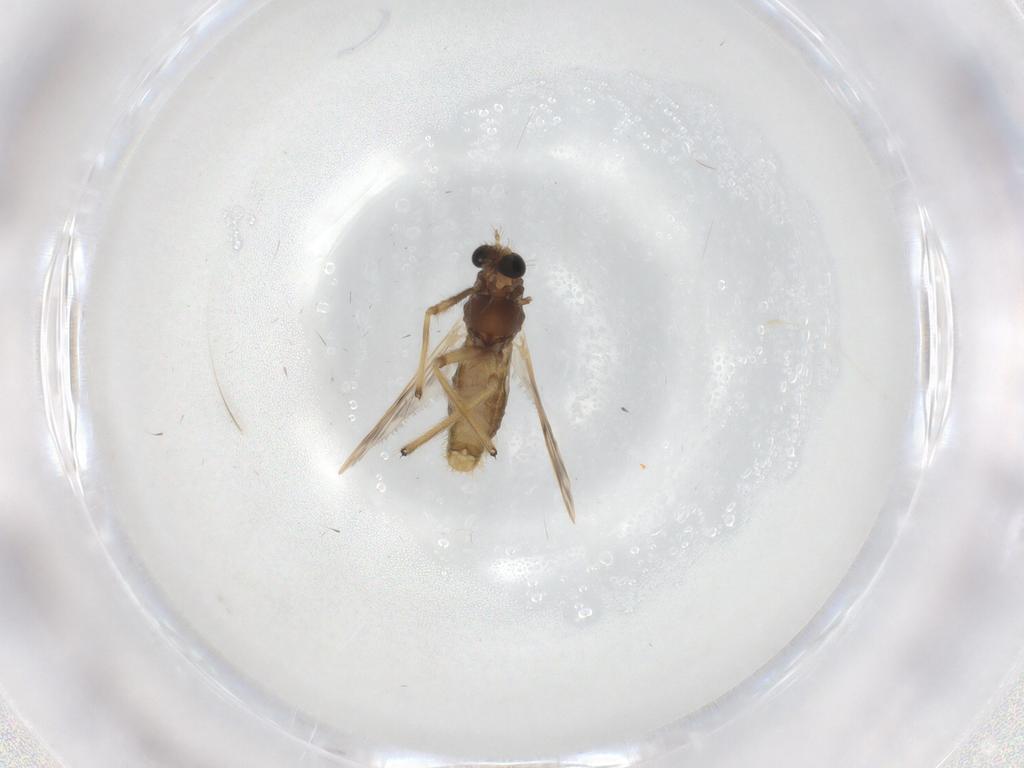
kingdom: Animalia
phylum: Arthropoda
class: Insecta
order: Diptera
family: Chironomidae
